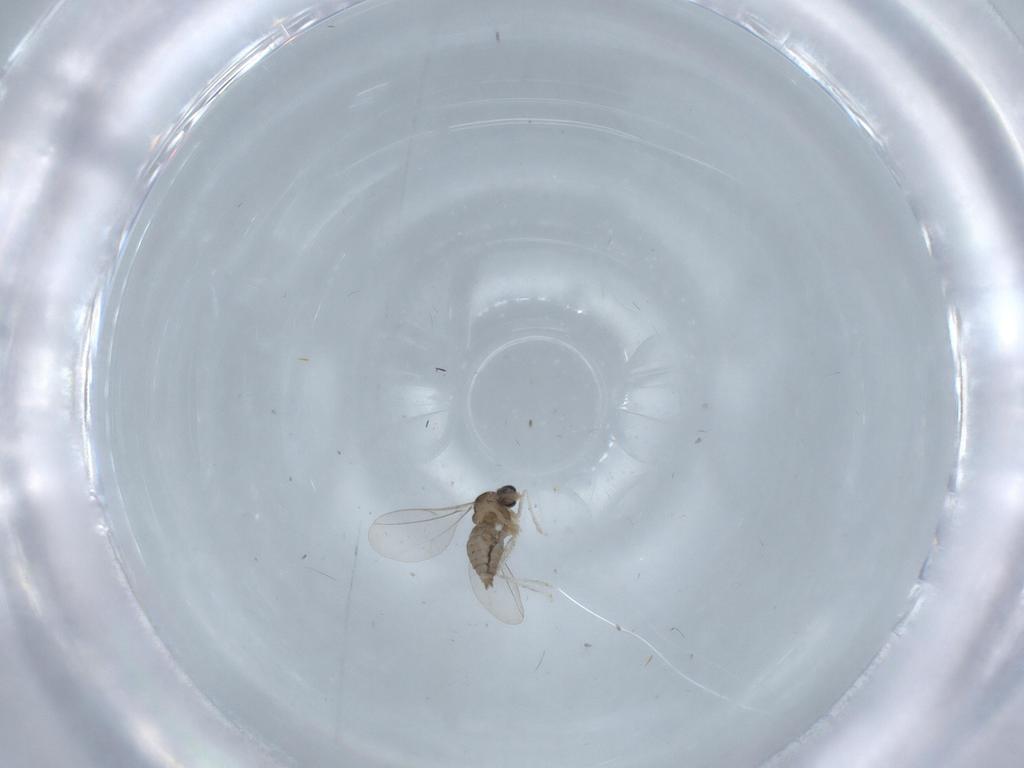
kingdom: Animalia
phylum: Arthropoda
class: Insecta
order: Diptera
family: Cecidomyiidae
